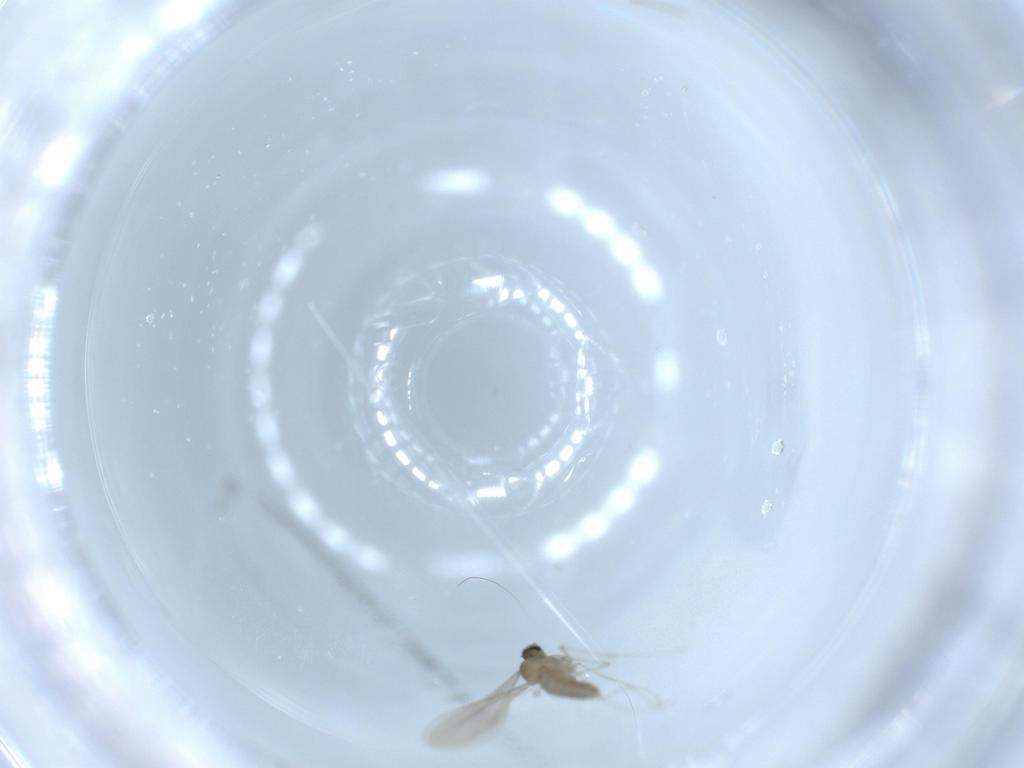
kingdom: Animalia
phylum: Arthropoda
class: Insecta
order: Diptera
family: Cecidomyiidae
